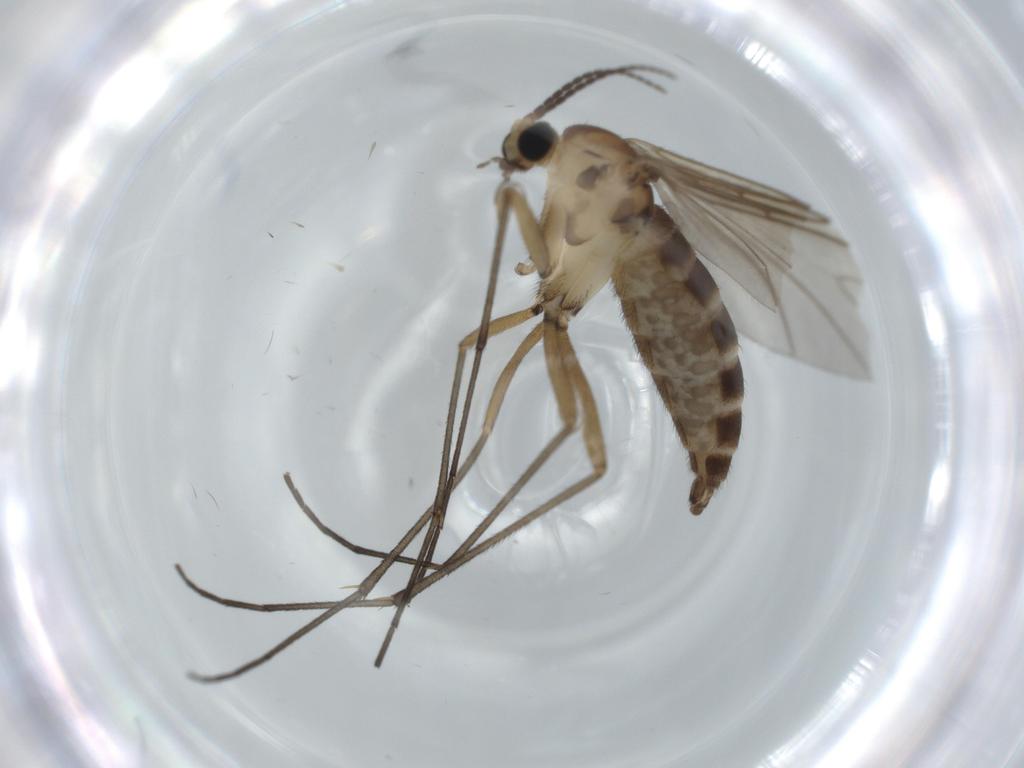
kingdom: Animalia
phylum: Arthropoda
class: Insecta
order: Diptera
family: Sciaridae
